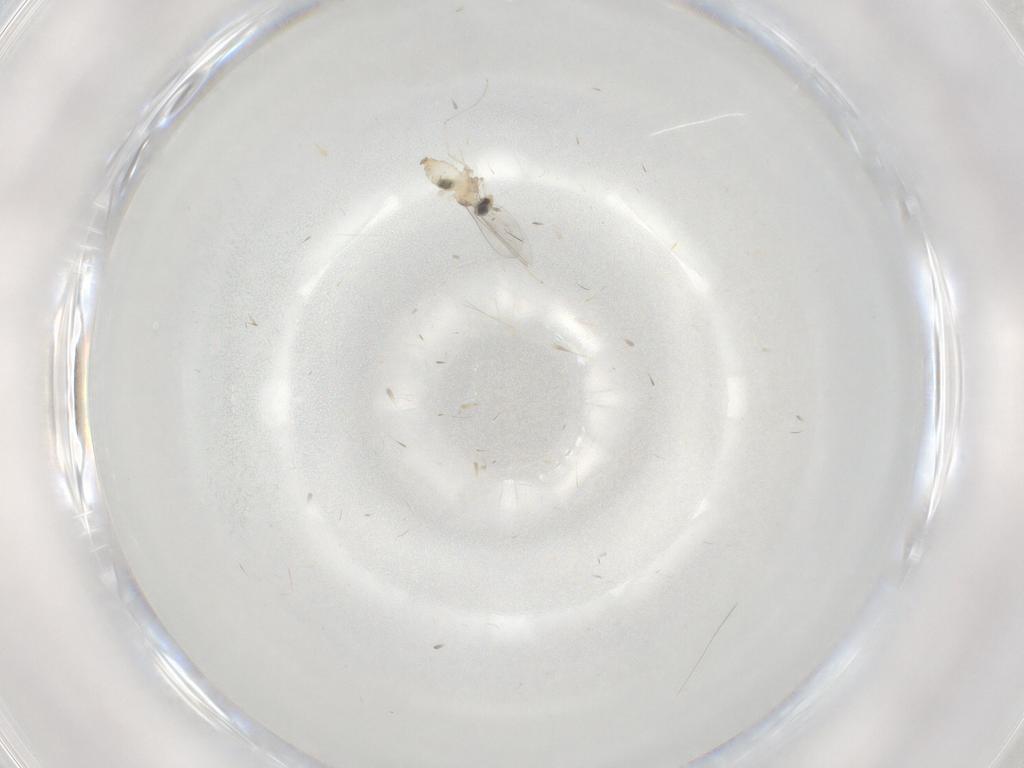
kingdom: Animalia
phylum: Arthropoda
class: Insecta
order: Diptera
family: Cecidomyiidae
